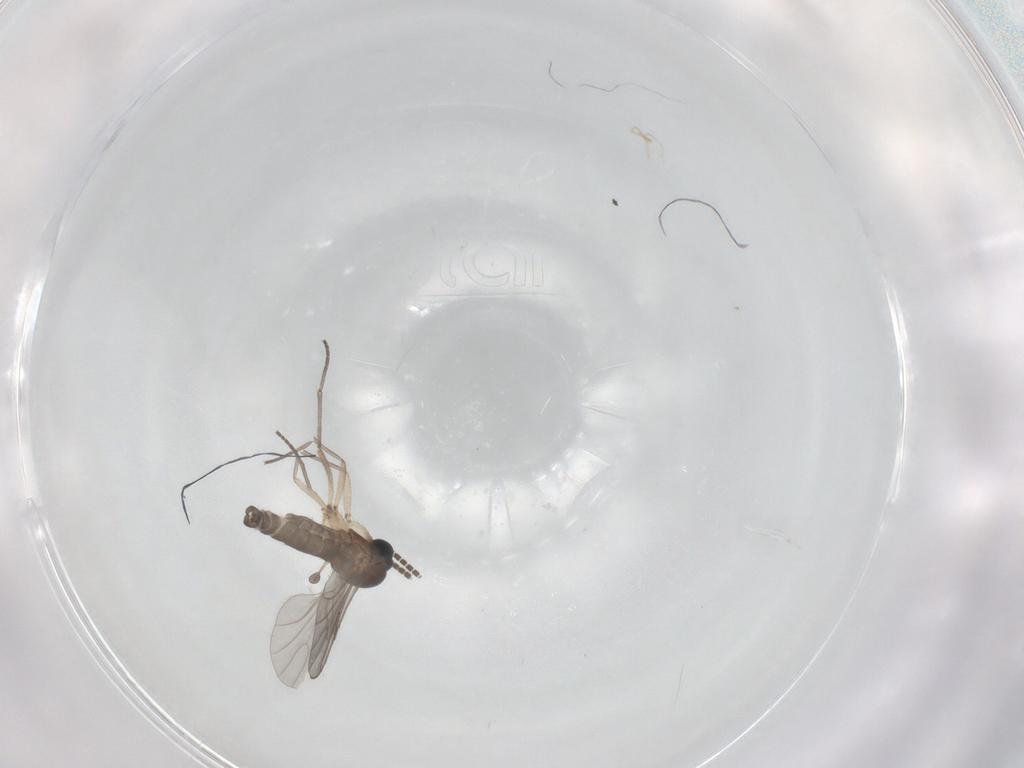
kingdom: Animalia
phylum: Arthropoda
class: Insecta
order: Diptera
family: Sciaridae
